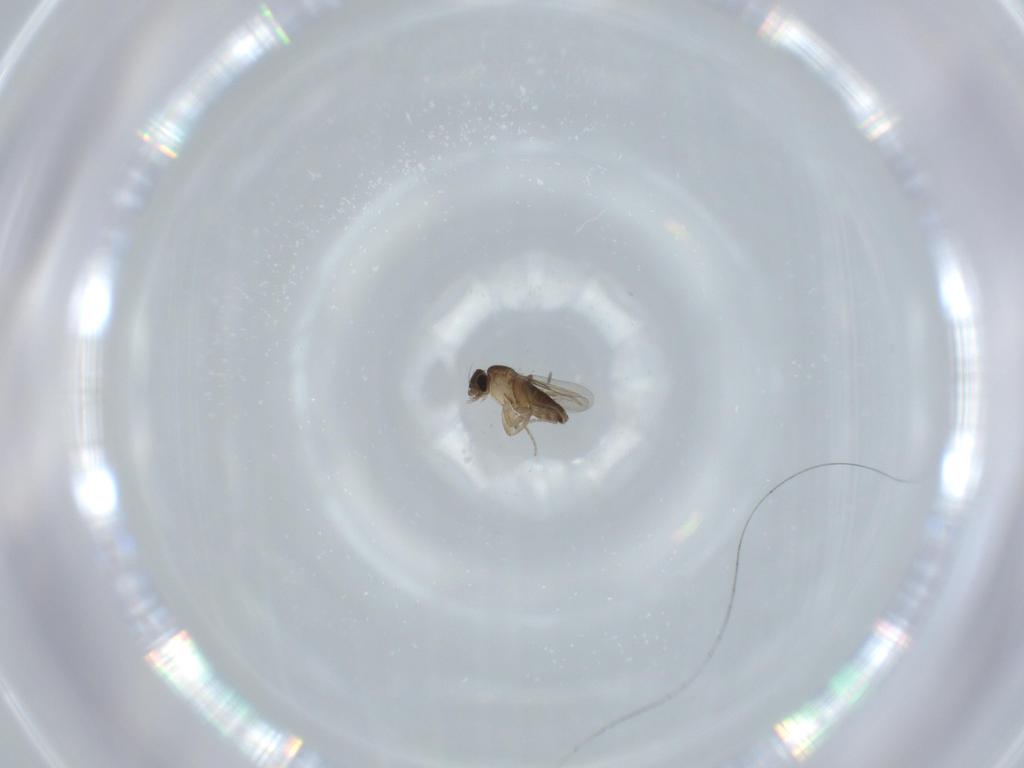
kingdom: Animalia
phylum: Arthropoda
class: Insecta
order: Diptera
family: Phoridae
